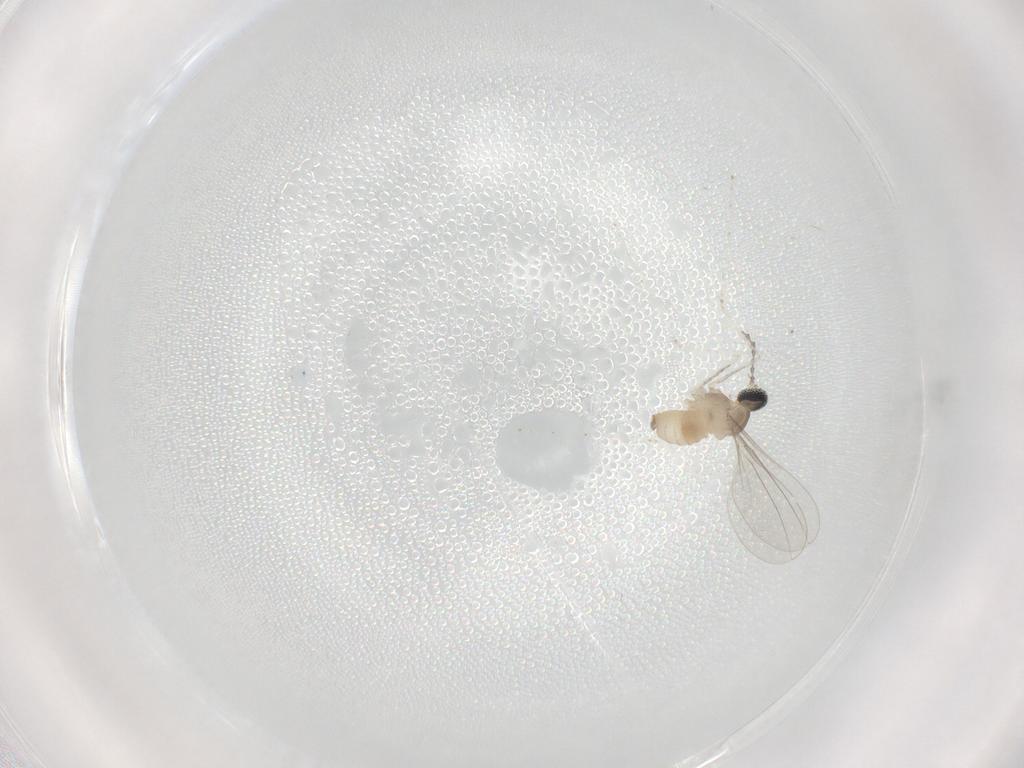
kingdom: Animalia
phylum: Arthropoda
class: Insecta
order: Diptera
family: Cecidomyiidae
